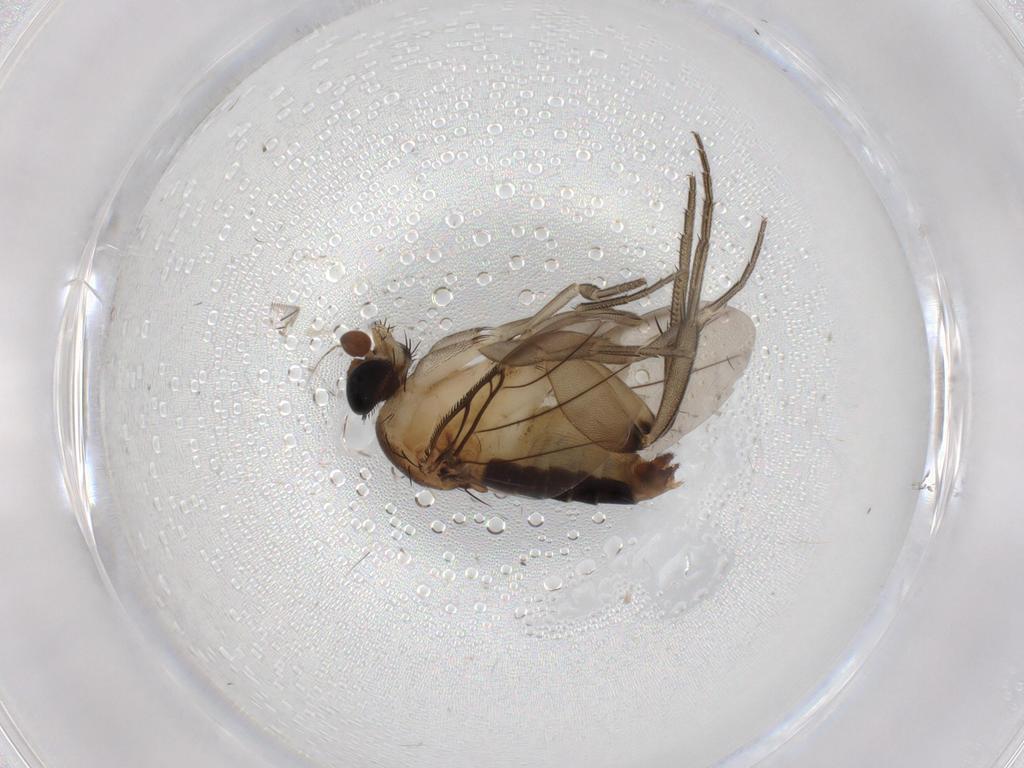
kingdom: Animalia
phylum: Arthropoda
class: Insecta
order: Diptera
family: Phoridae
